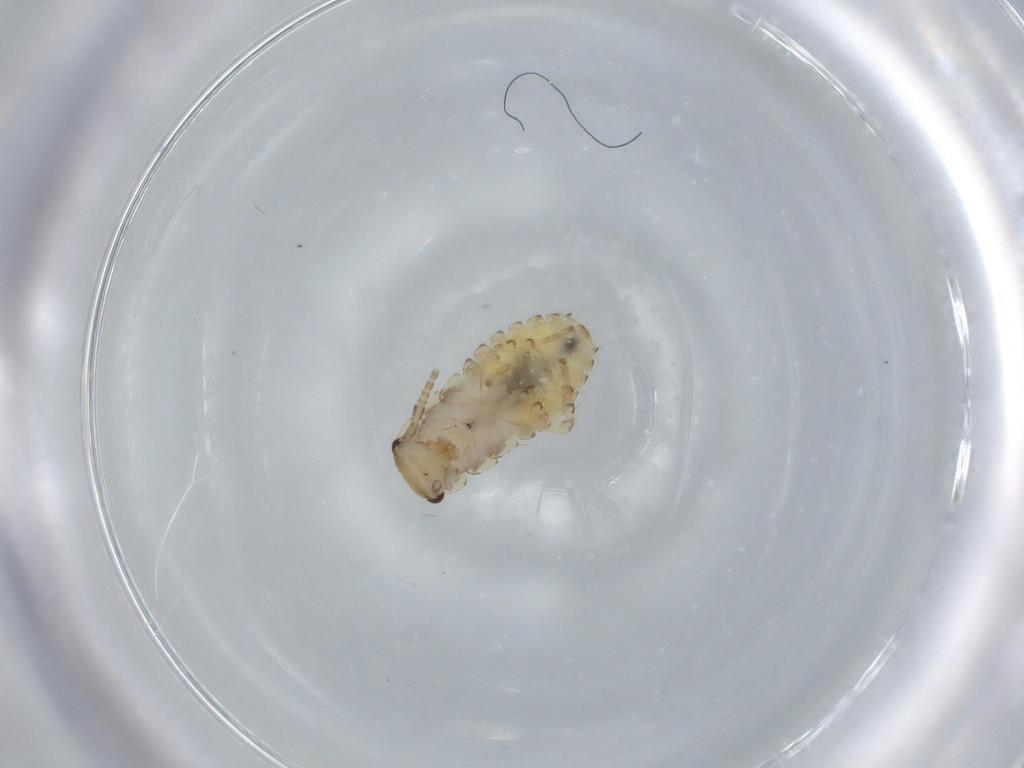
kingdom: Animalia
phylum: Arthropoda
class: Insecta
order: Blattodea
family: Ectobiidae
